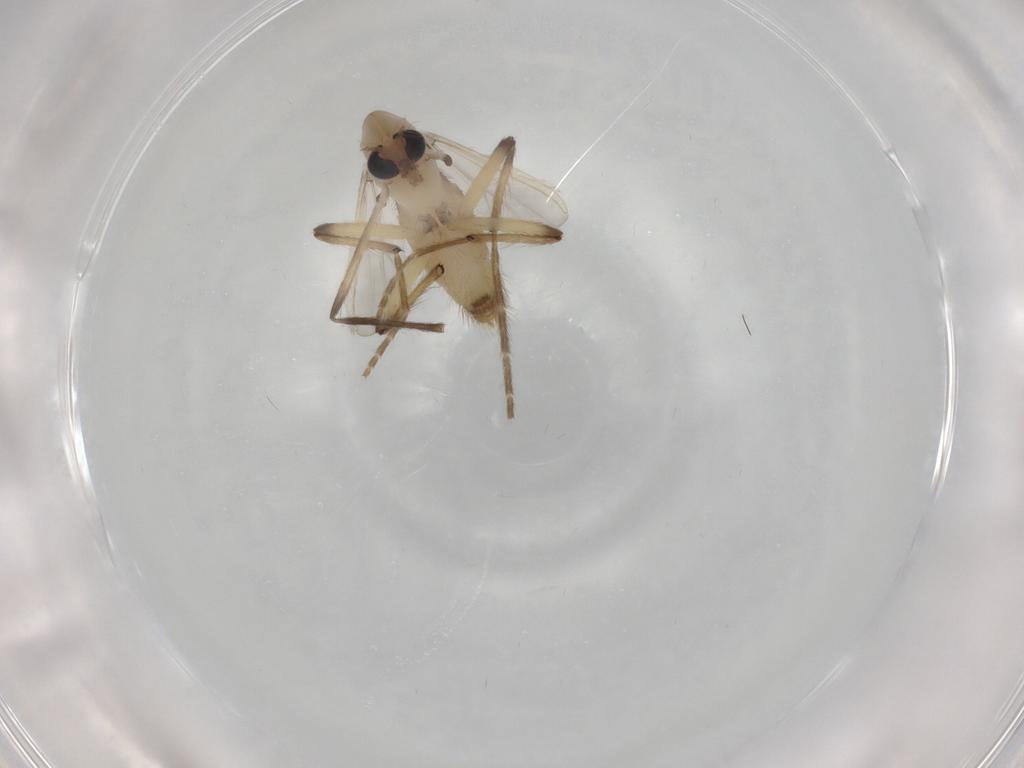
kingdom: Animalia
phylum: Arthropoda
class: Insecta
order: Diptera
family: Chironomidae
